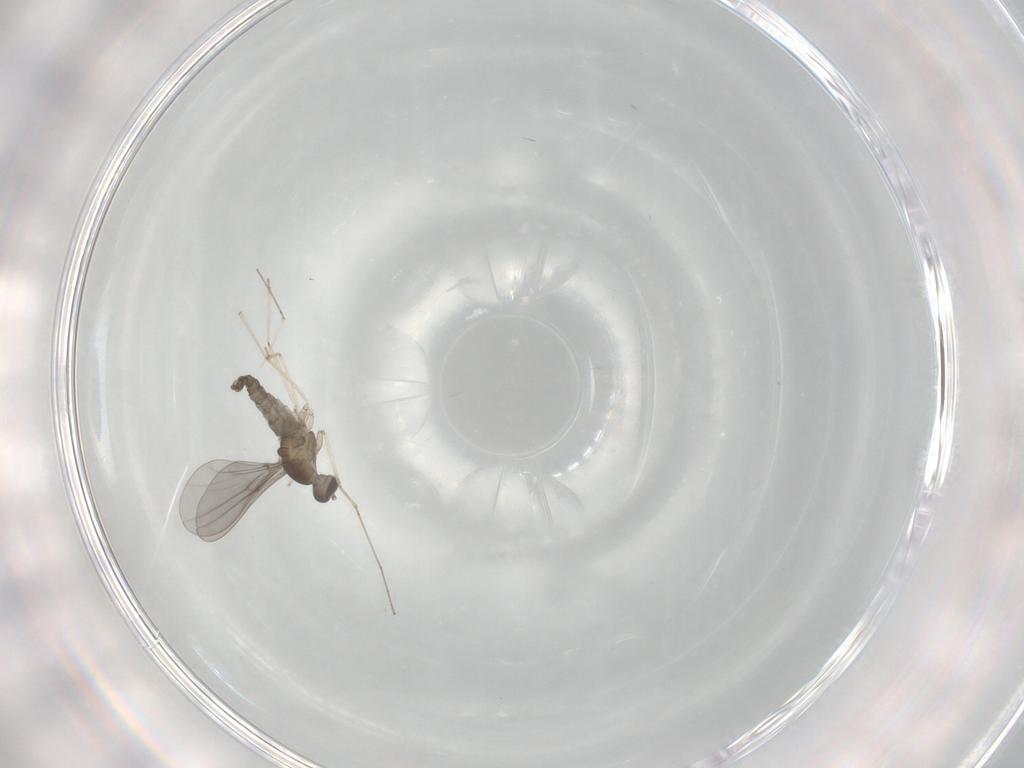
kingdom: Animalia
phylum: Arthropoda
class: Insecta
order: Diptera
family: Cecidomyiidae
